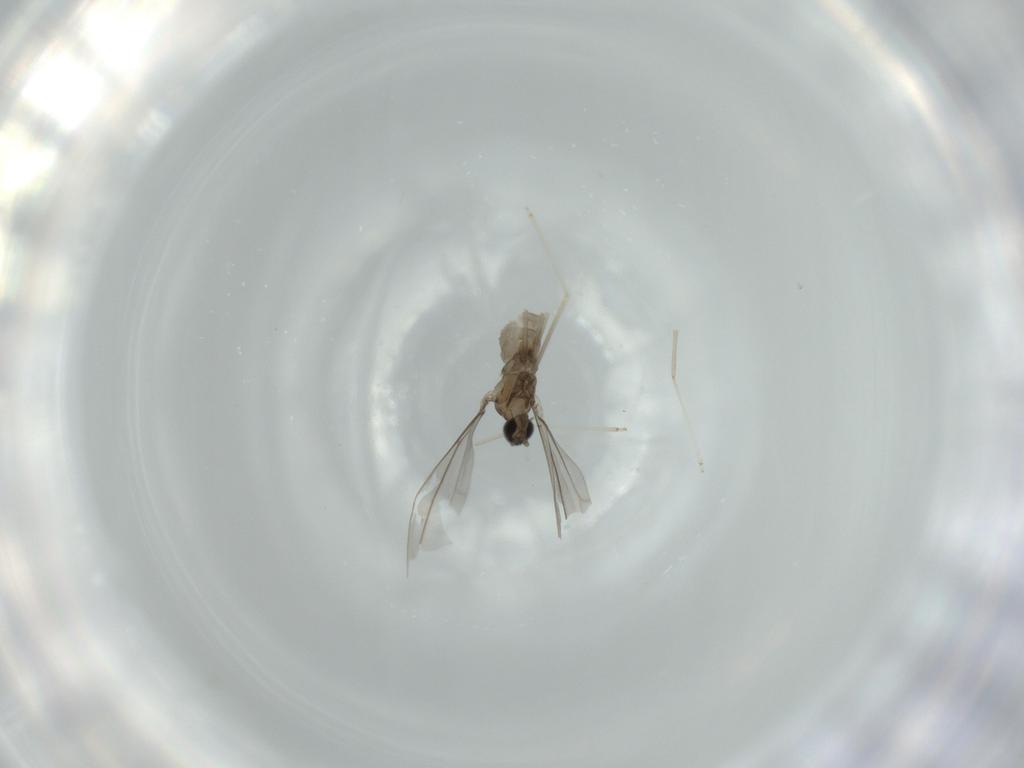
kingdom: Animalia
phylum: Arthropoda
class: Insecta
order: Diptera
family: Cecidomyiidae
